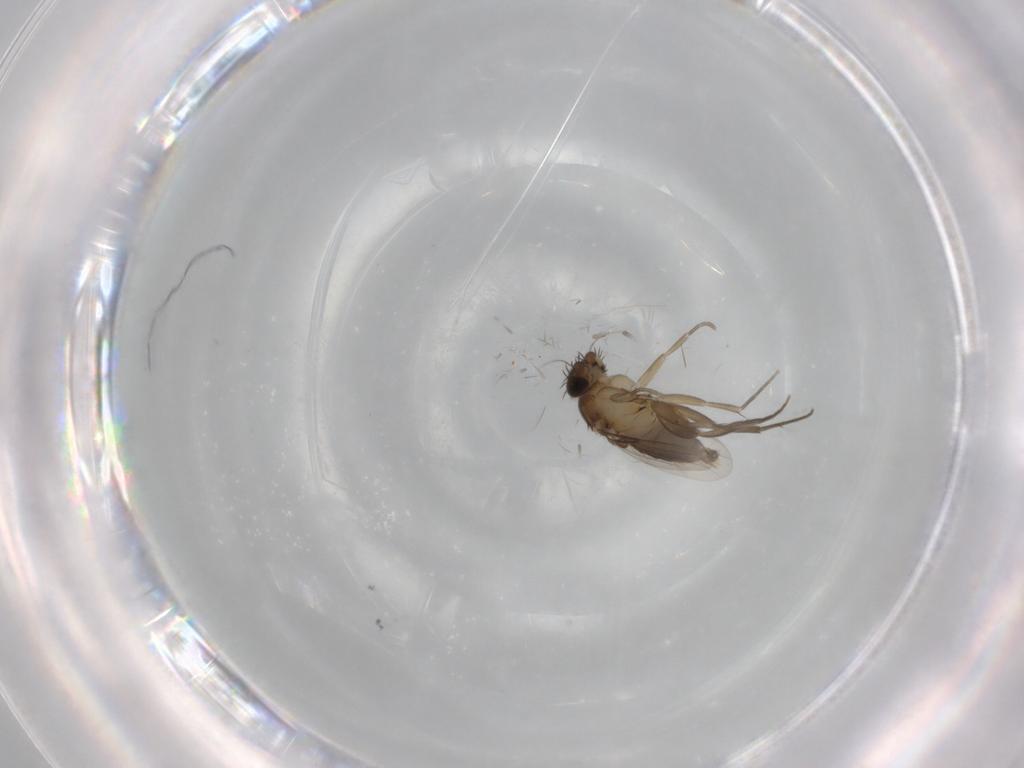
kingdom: Animalia
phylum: Arthropoda
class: Insecta
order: Diptera
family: Phoridae
